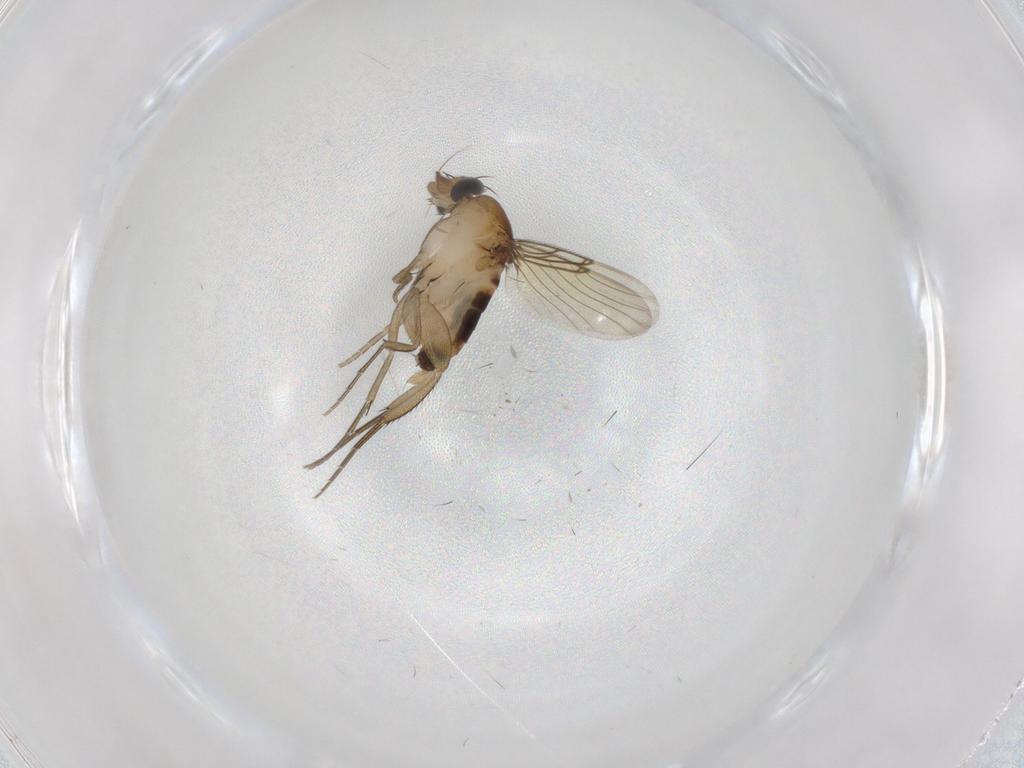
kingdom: Animalia
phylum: Arthropoda
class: Insecta
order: Diptera
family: Phoridae
